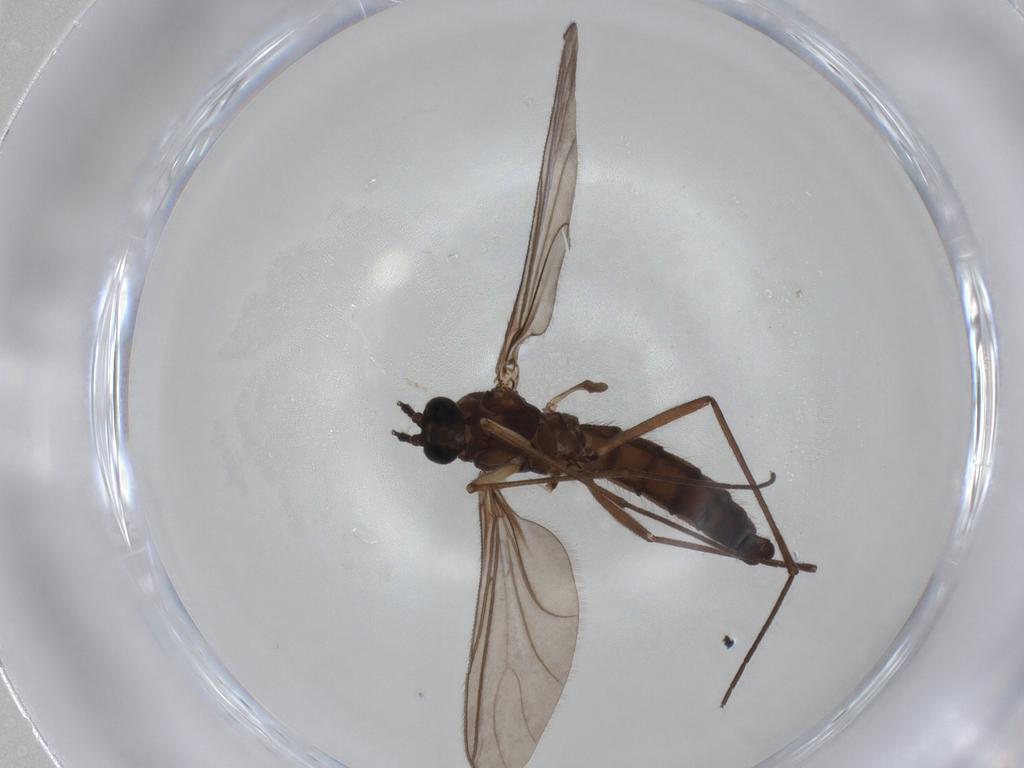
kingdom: Animalia
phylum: Arthropoda
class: Insecta
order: Diptera
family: Sciaridae
